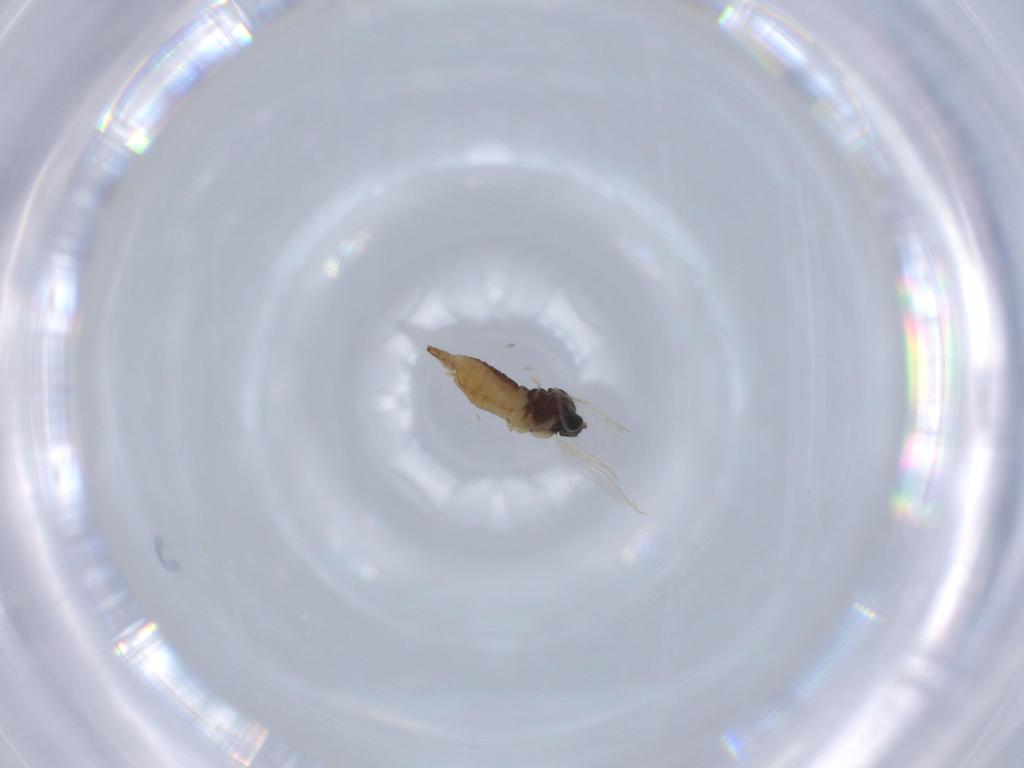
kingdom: Animalia
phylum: Arthropoda
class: Insecta
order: Diptera
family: Sciaridae
